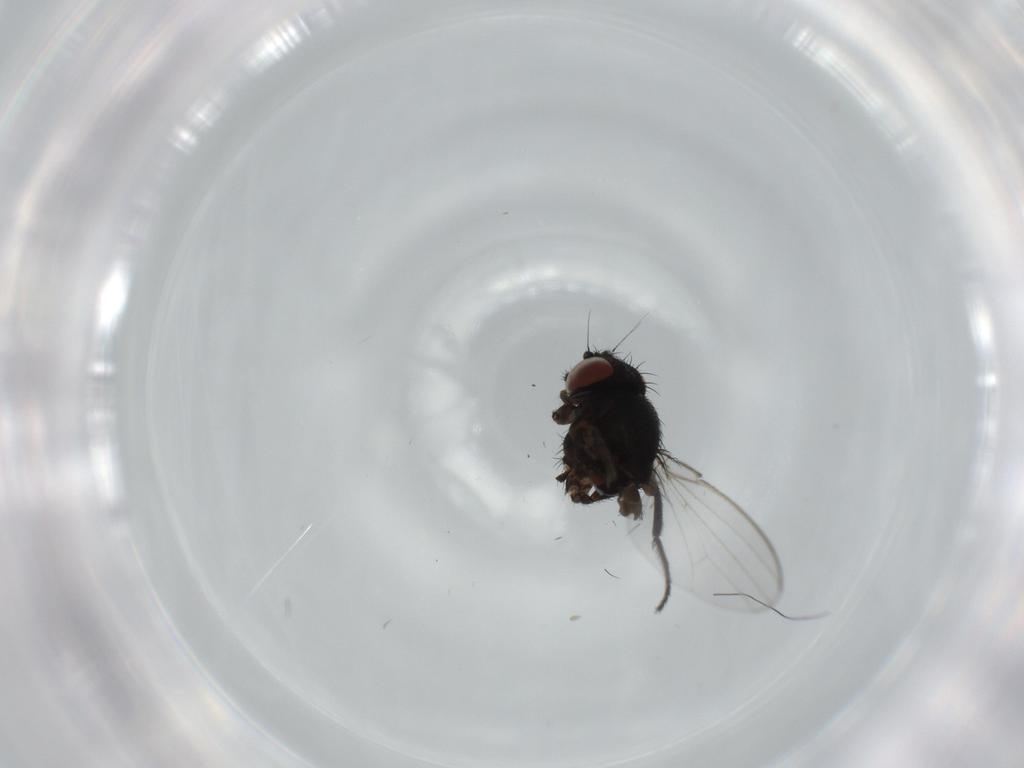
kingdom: Animalia
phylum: Arthropoda
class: Insecta
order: Diptera
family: Milichiidae
